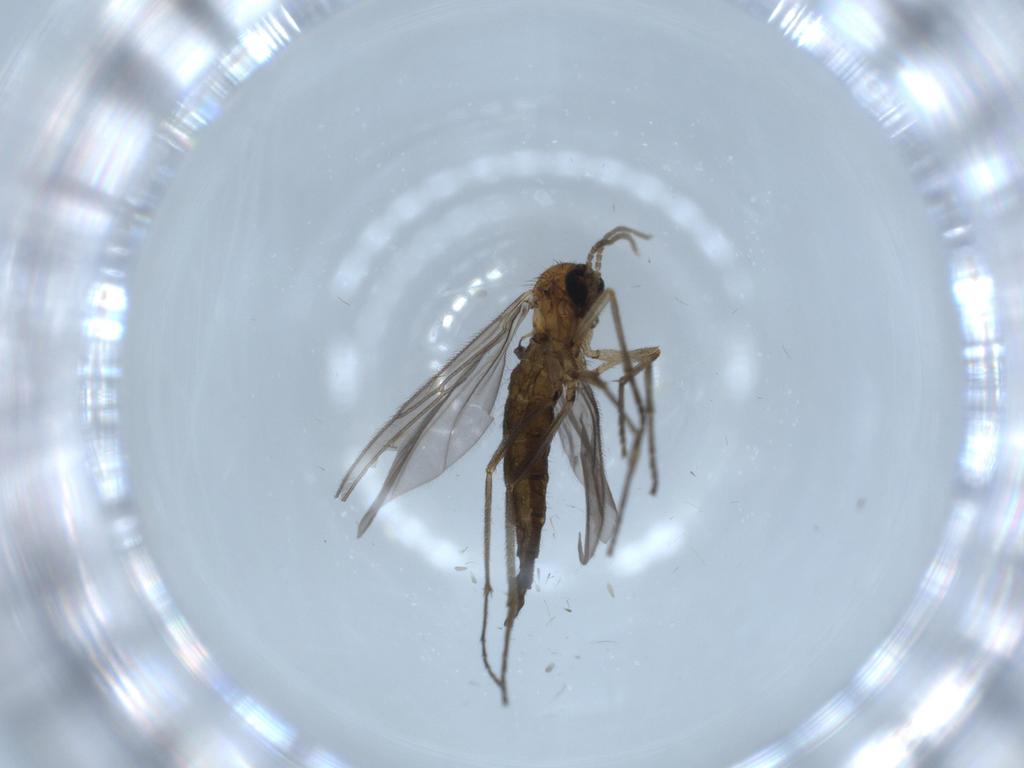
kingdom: Animalia
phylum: Arthropoda
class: Insecta
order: Diptera
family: Sciaridae
